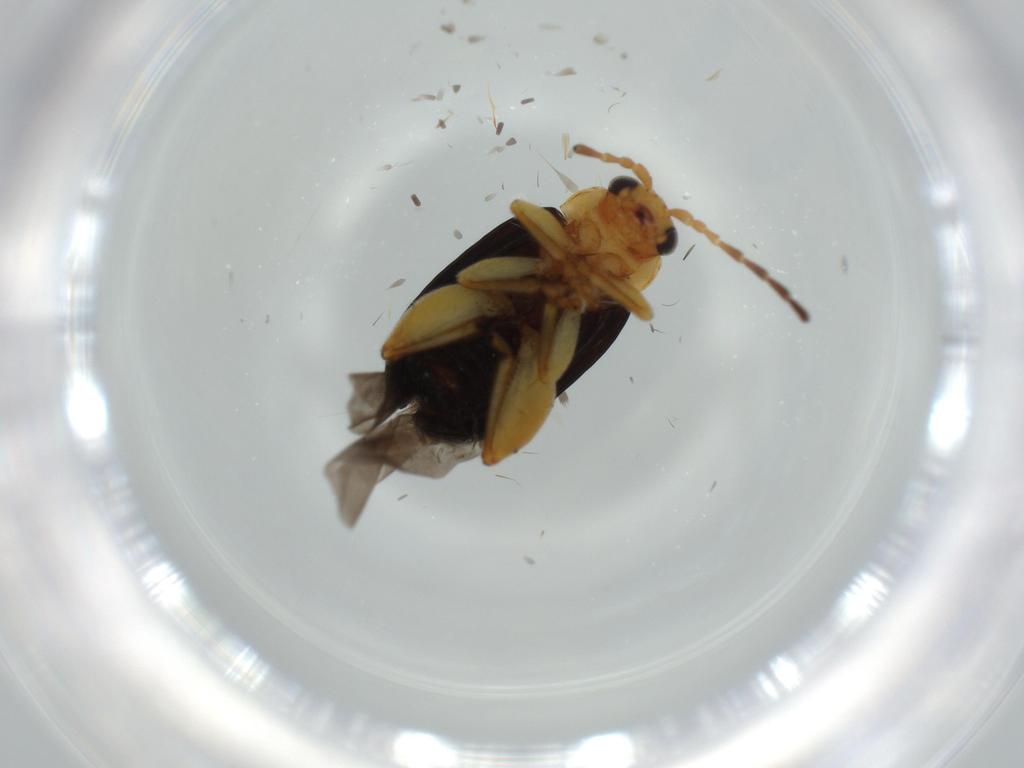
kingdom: Animalia
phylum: Arthropoda
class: Insecta
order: Coleoptera
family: Chrysomelidae
